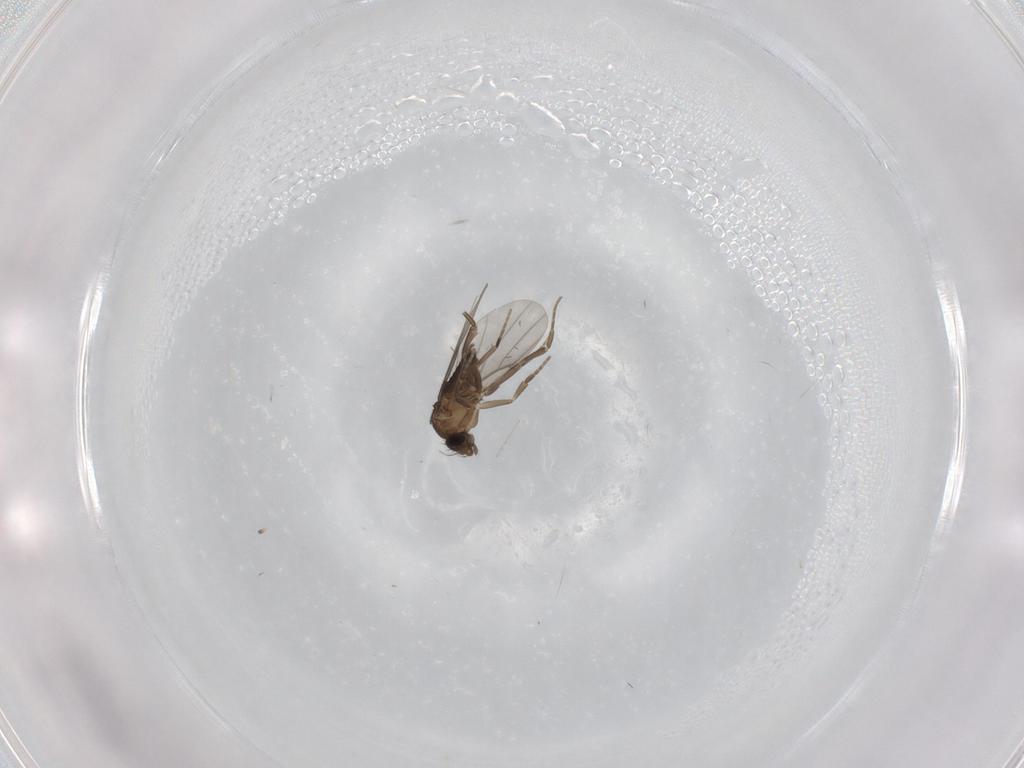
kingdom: Animalia
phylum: Arthropoda
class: Insecta
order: Diptera
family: Phoridae
